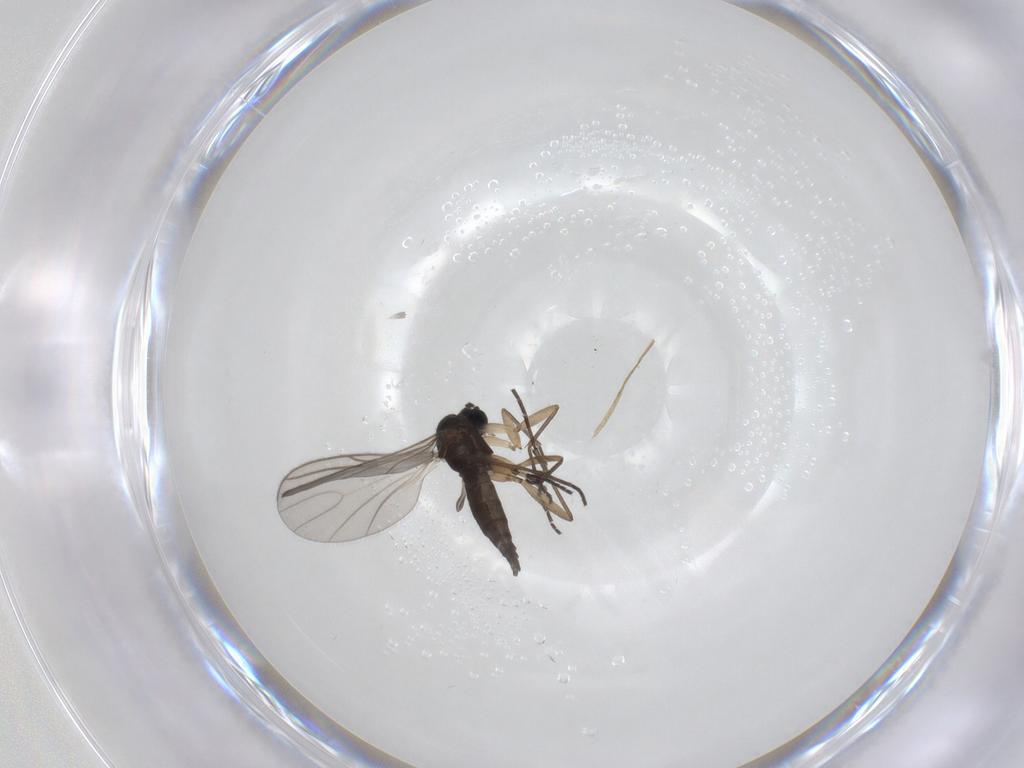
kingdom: Animalia
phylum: Arthropoda
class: Insecta
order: Diptera
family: Sciaridae
